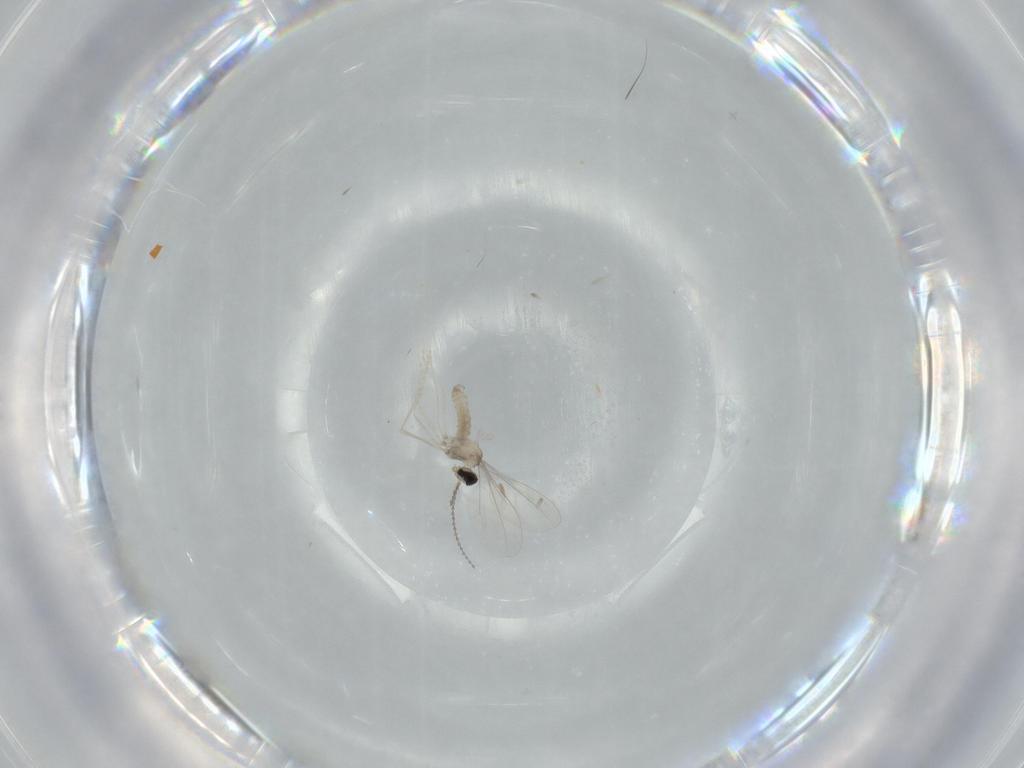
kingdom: Animalia
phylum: Arthropoda
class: Insecta
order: Diptera
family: Cecidomyiidae
